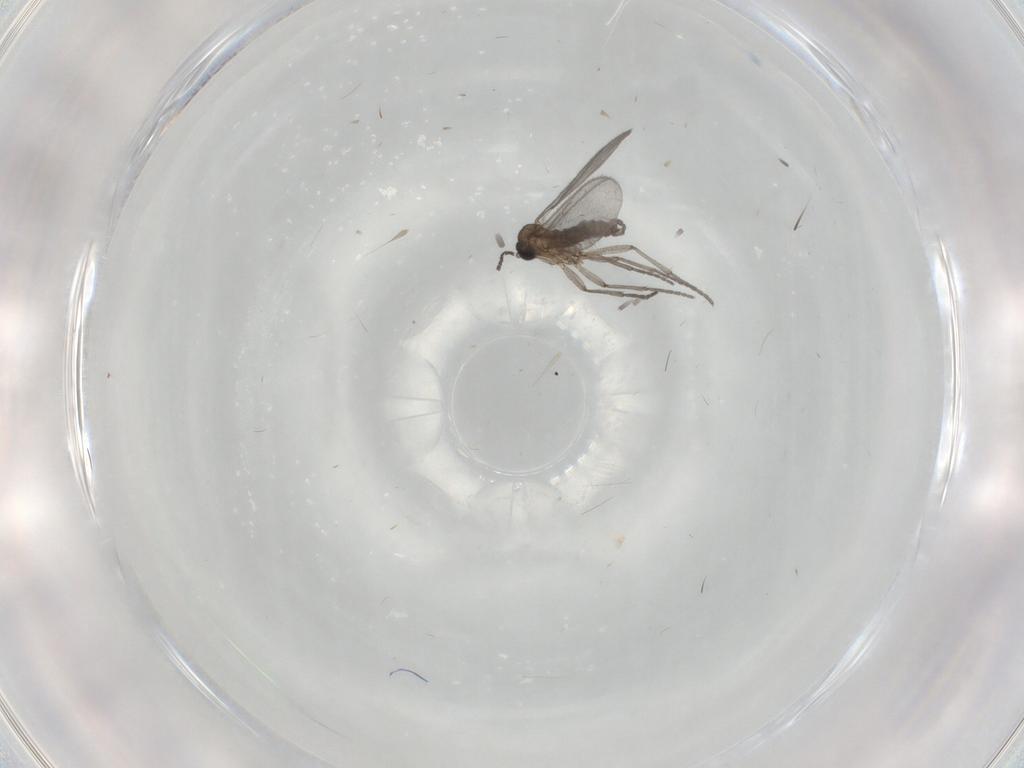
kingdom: Animalia
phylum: Arthropoda
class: Insecta
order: Diptera
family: Sciaridae
